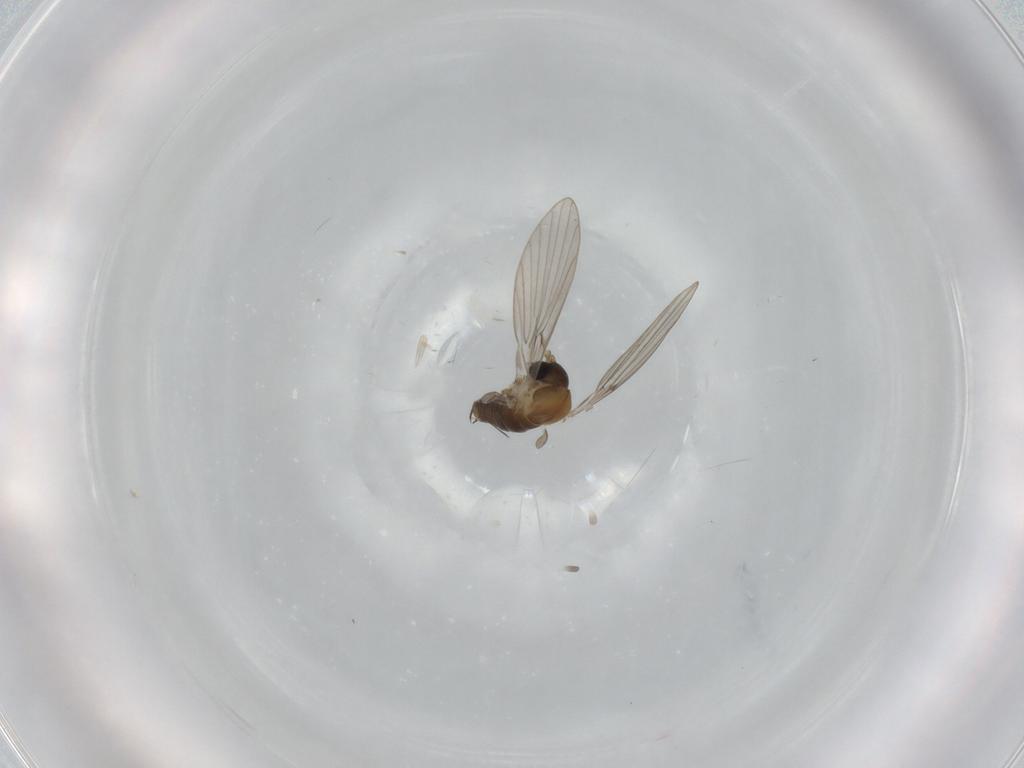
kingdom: Animalia
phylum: Arthropoda
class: Insecta
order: Diptera
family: Psychodidae
